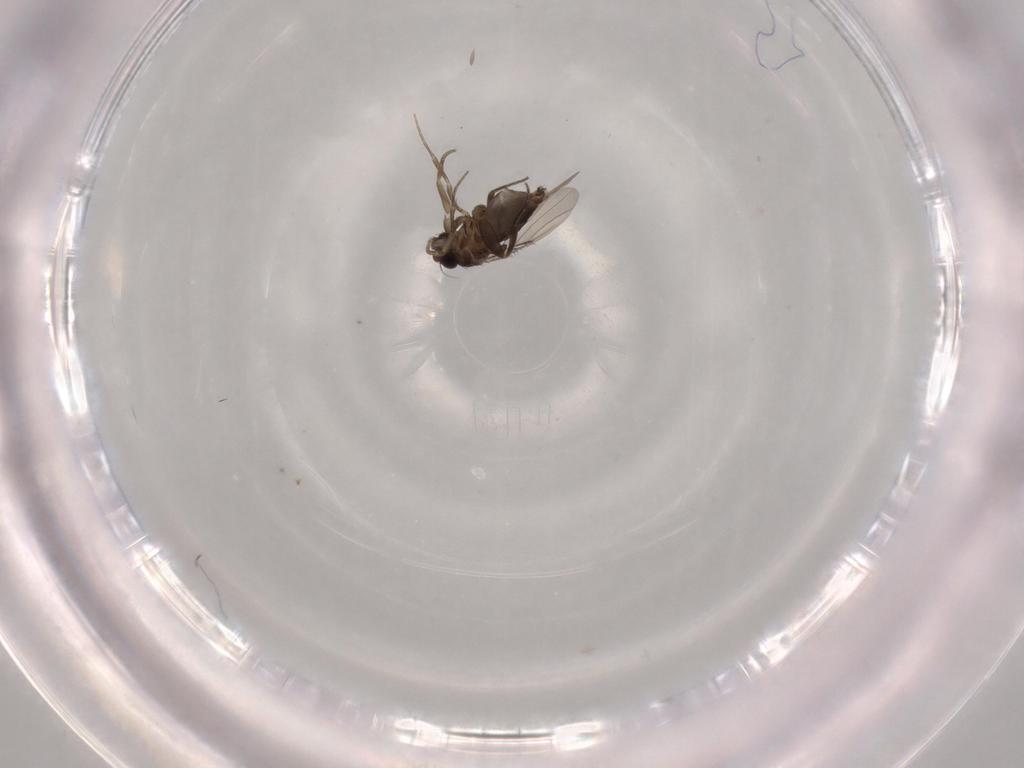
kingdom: Animalia
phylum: Arthropoda
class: Insecta
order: Diptera
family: Phoridae
